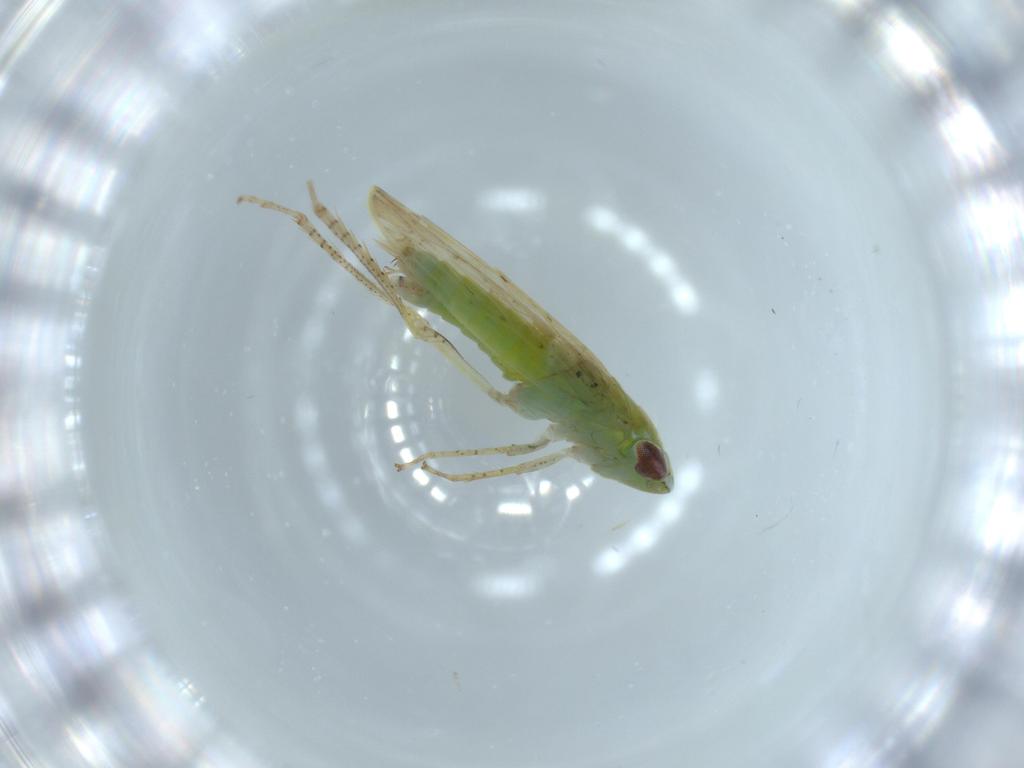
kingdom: Animalia
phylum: Arthropoda
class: Insecta
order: Hemiptera
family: Cicadellidae
